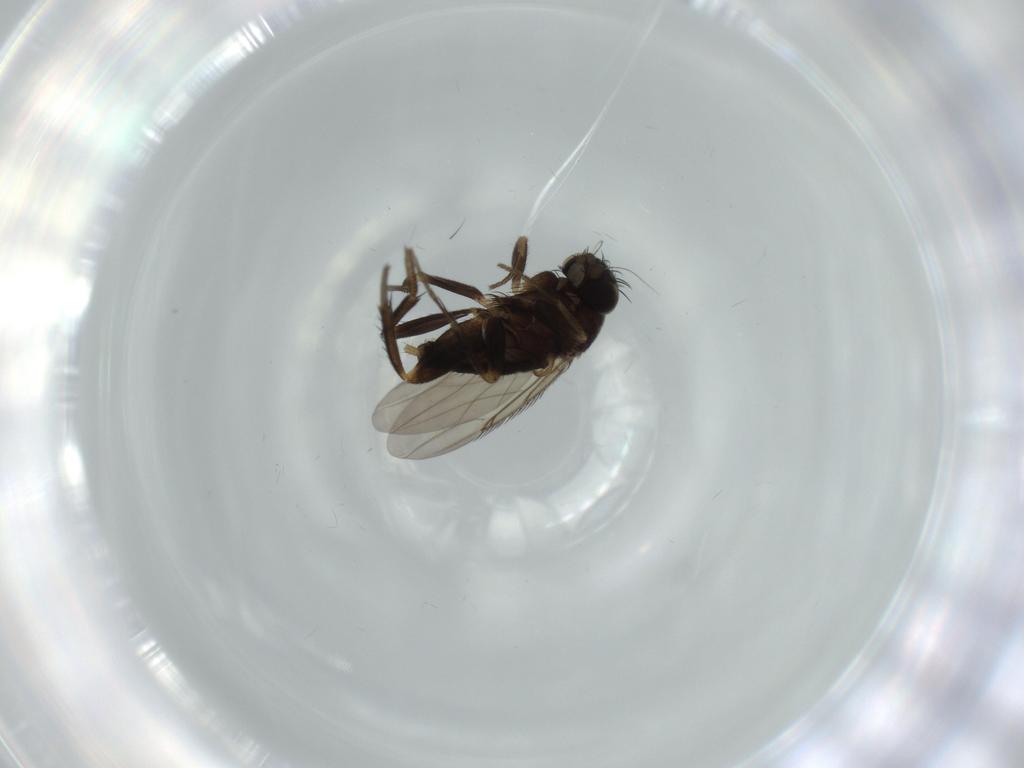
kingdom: Animalia
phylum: Arthropoda
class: Insecta
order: Diptera
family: Phoridae
